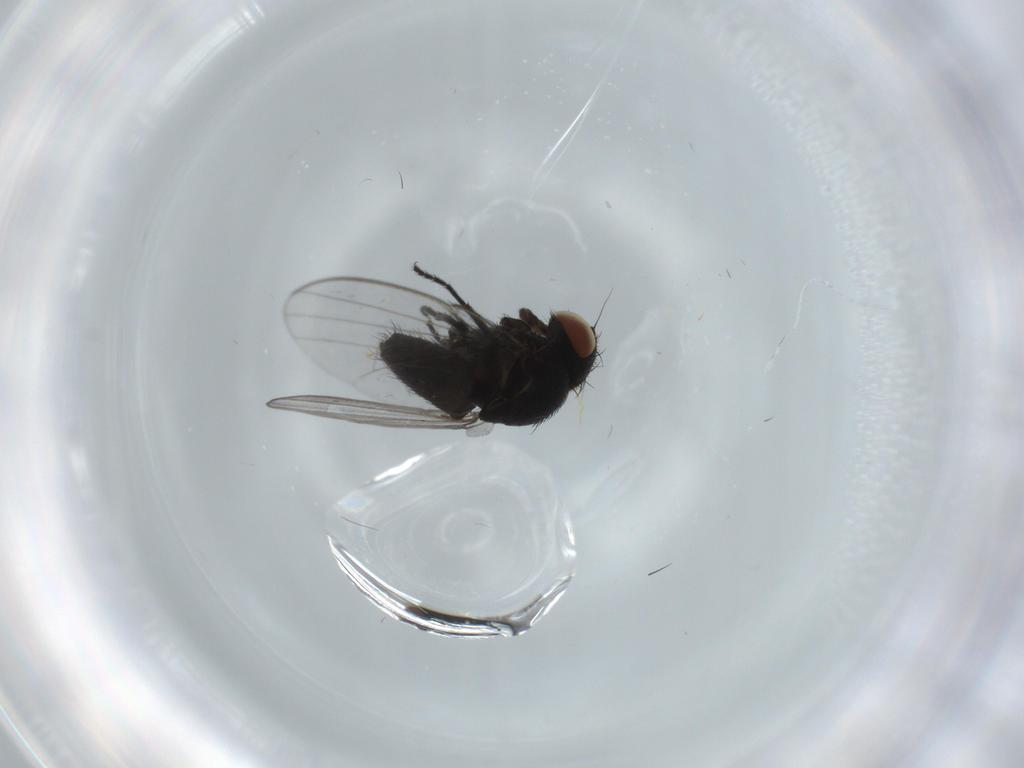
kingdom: Animalia
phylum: Arthropoda
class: Insecta
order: Diptera
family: Milichiidae
